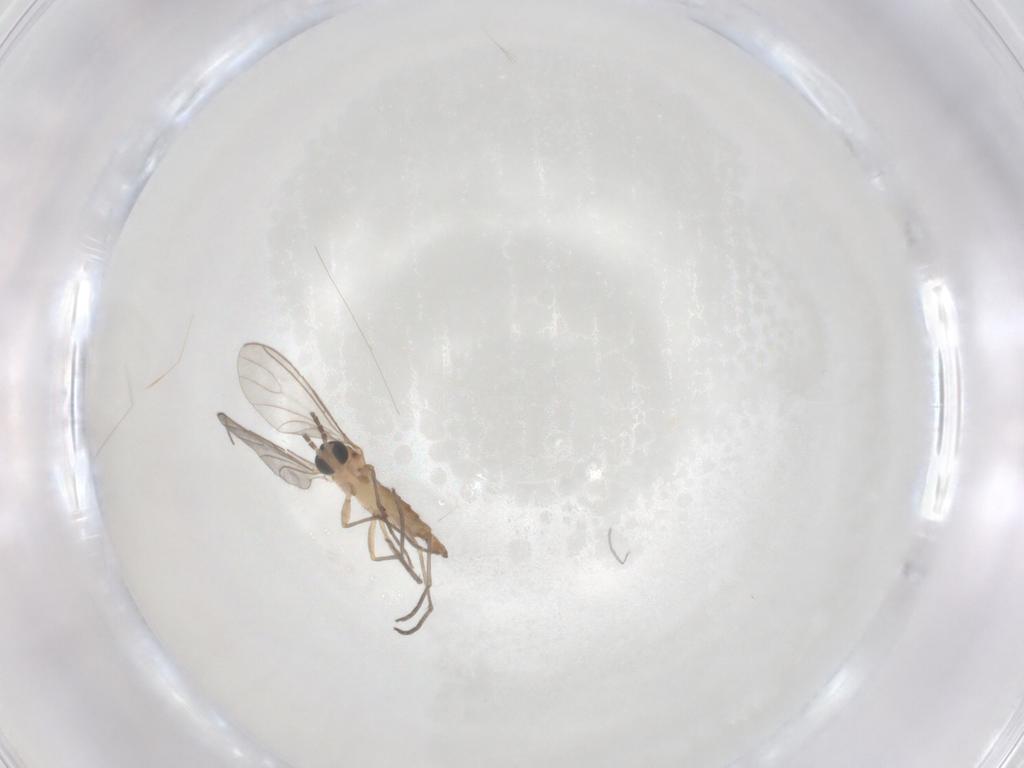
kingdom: Animalia
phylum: Arthropoda
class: Insecta
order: Diptera
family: Sciaridae
